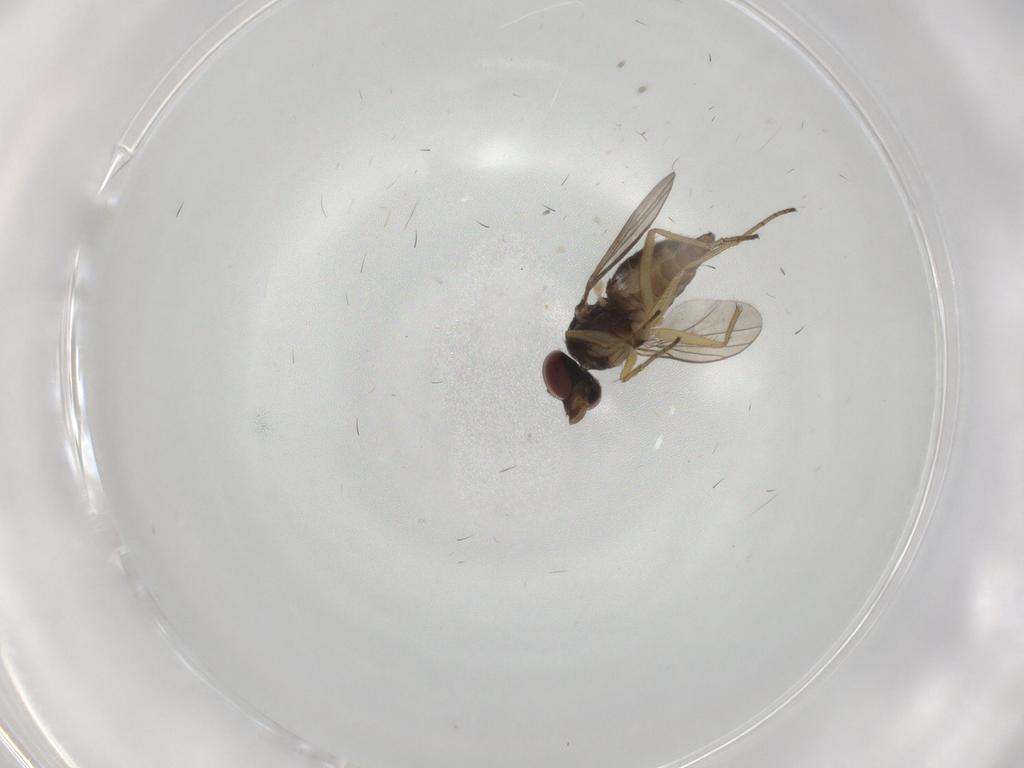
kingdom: Animalia
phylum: Arthropoda
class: Insecta
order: Diptera
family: Dolichopodidae
